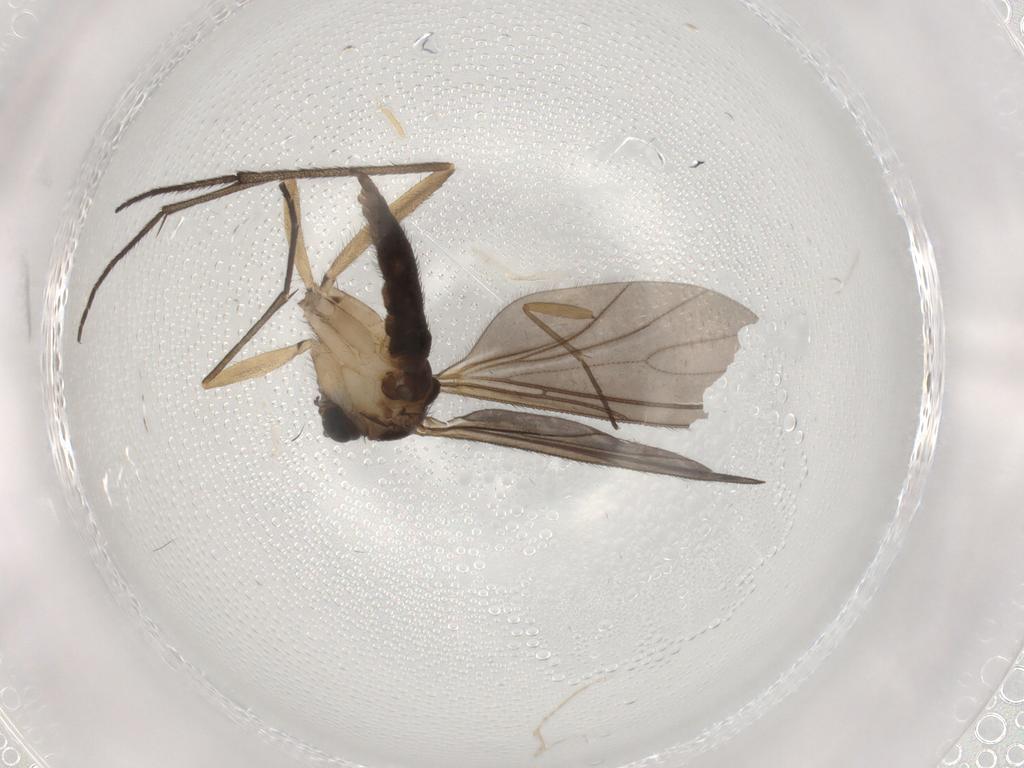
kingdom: Animalia
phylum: Arthropoda
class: Insecta
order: Diptera
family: Sciaridae
